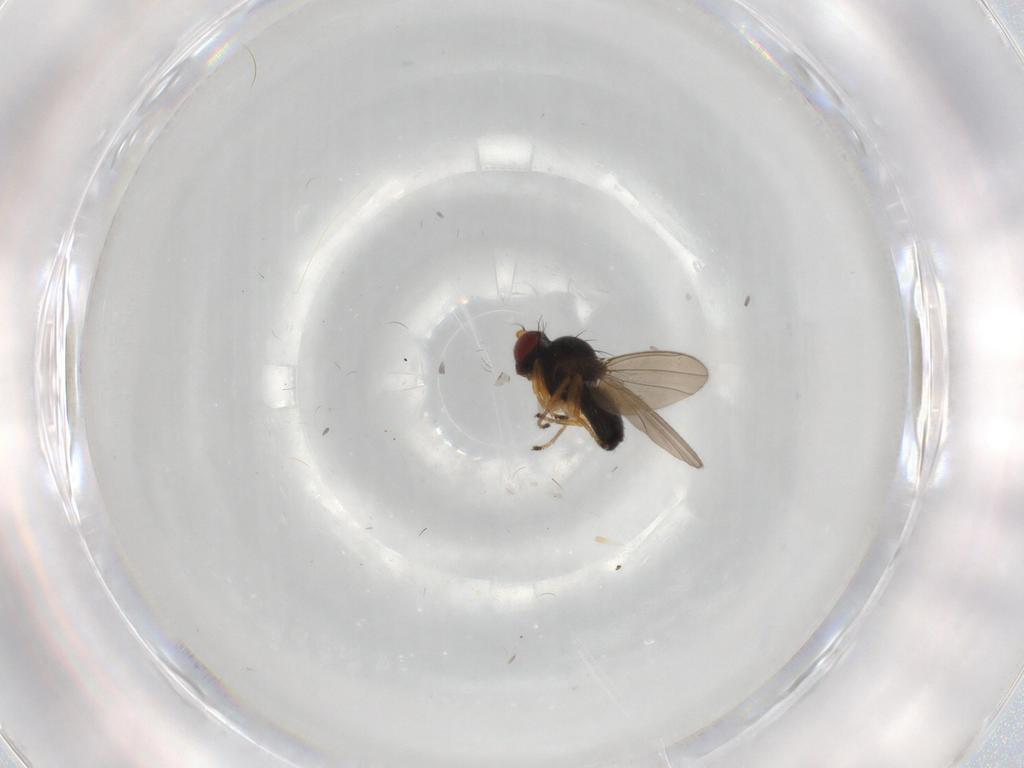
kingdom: Animalia
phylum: Arthropoda
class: Insecta
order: Diptera
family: Ephydridae
